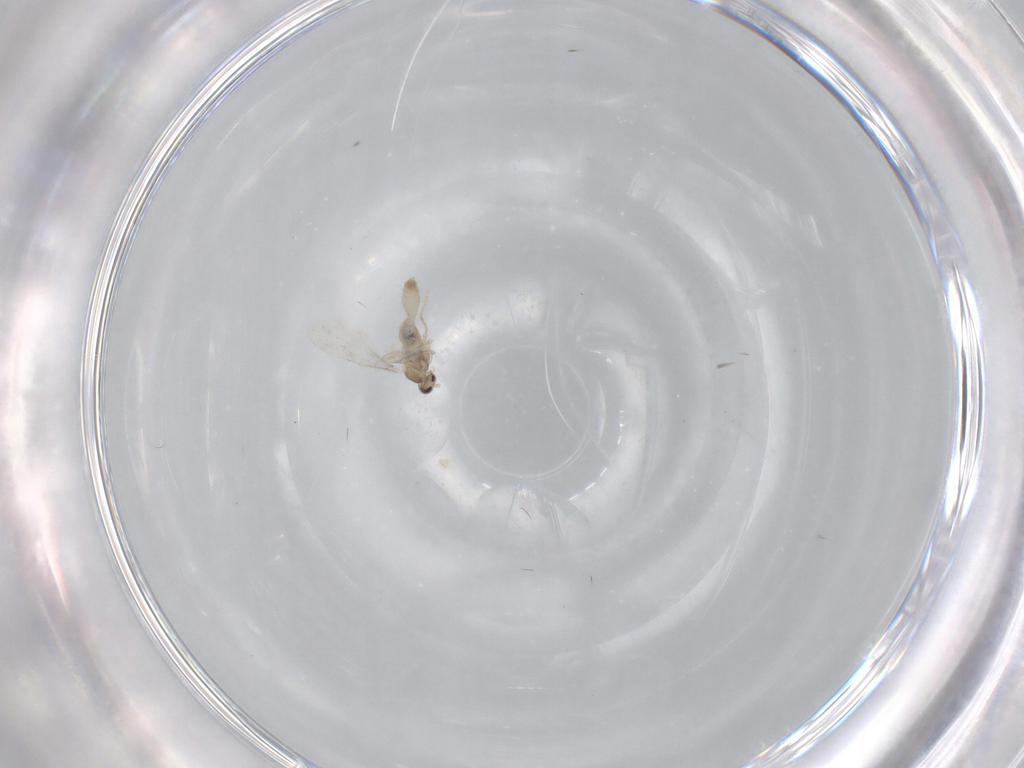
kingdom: Animalia
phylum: Arthropoda
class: Insecta
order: Diptera
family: Cecidomyiidae
